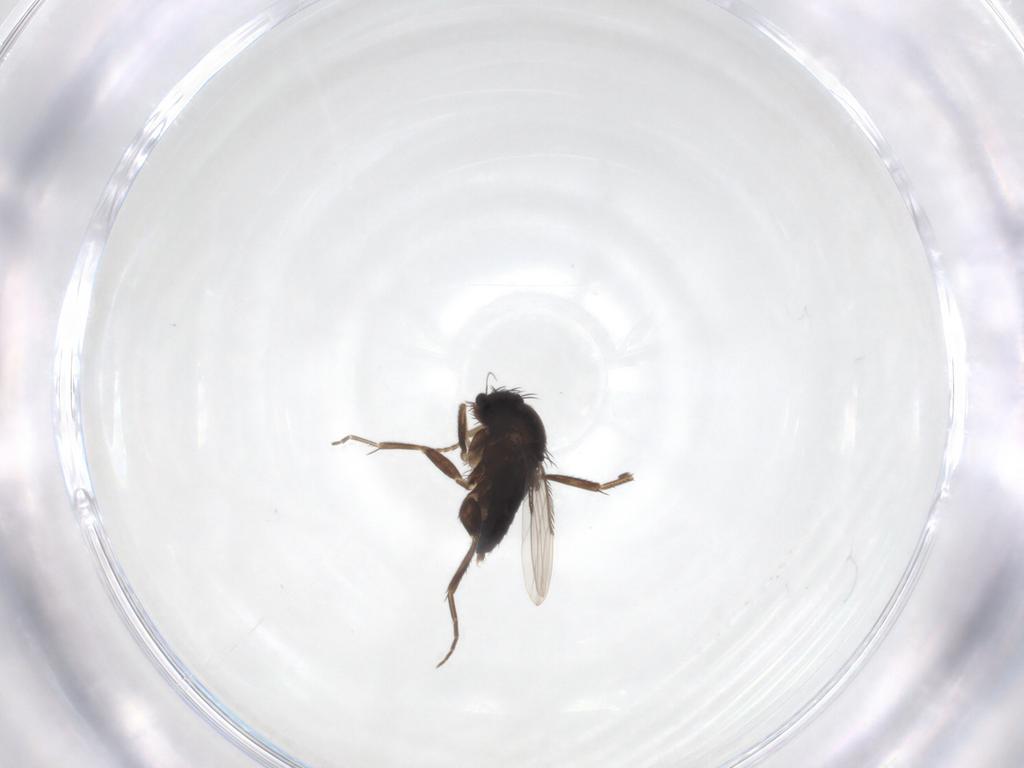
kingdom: Animalia
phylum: Arthropoda
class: Insecta
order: Diptera
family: Phoridae
